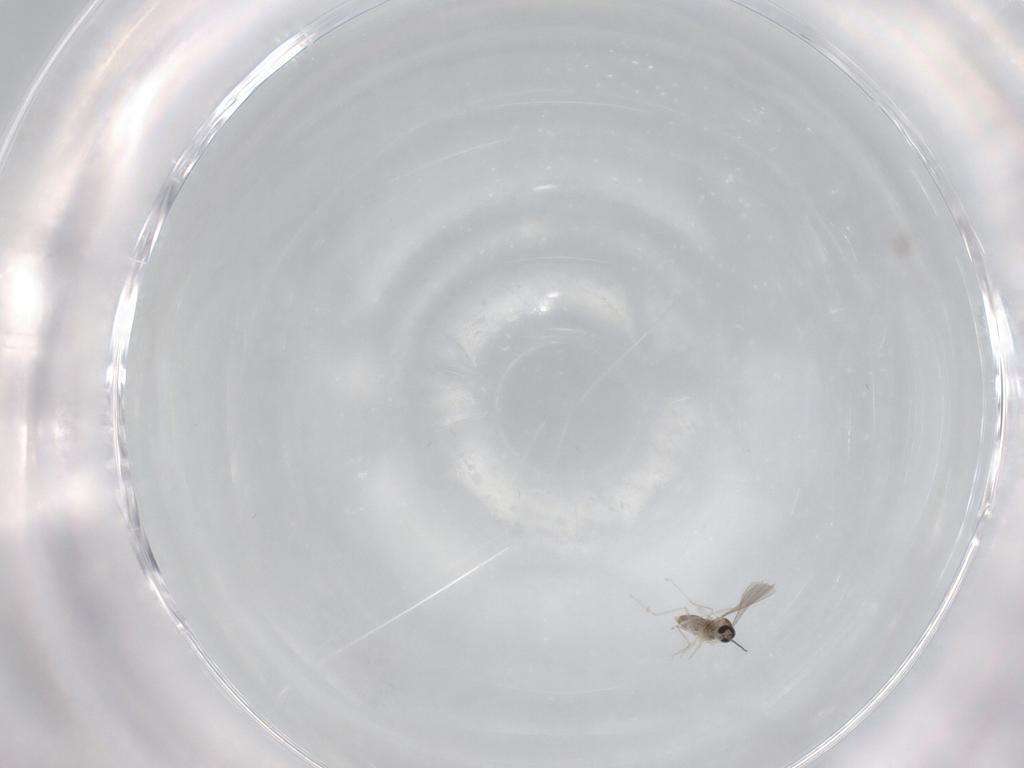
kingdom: Animalia
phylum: Arthropoda
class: Insecta
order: Diptera
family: Cecidomyiidae
